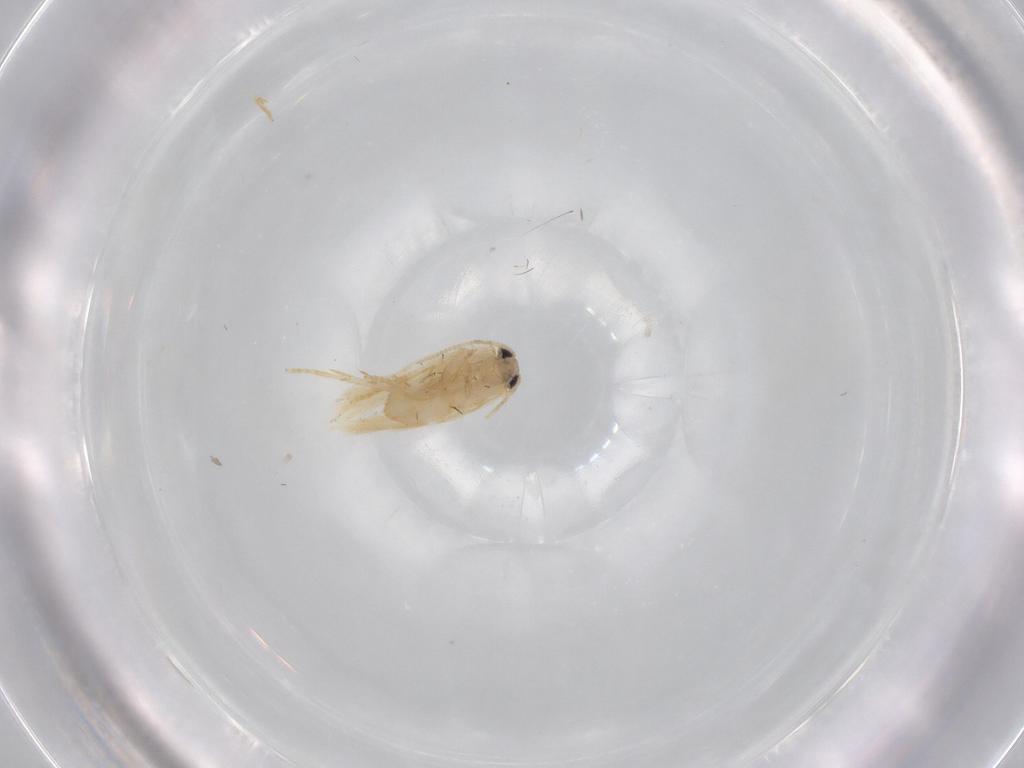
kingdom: Animalia
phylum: Arthropoda
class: Insecta
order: Lepidoptera
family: Nepticulidae
